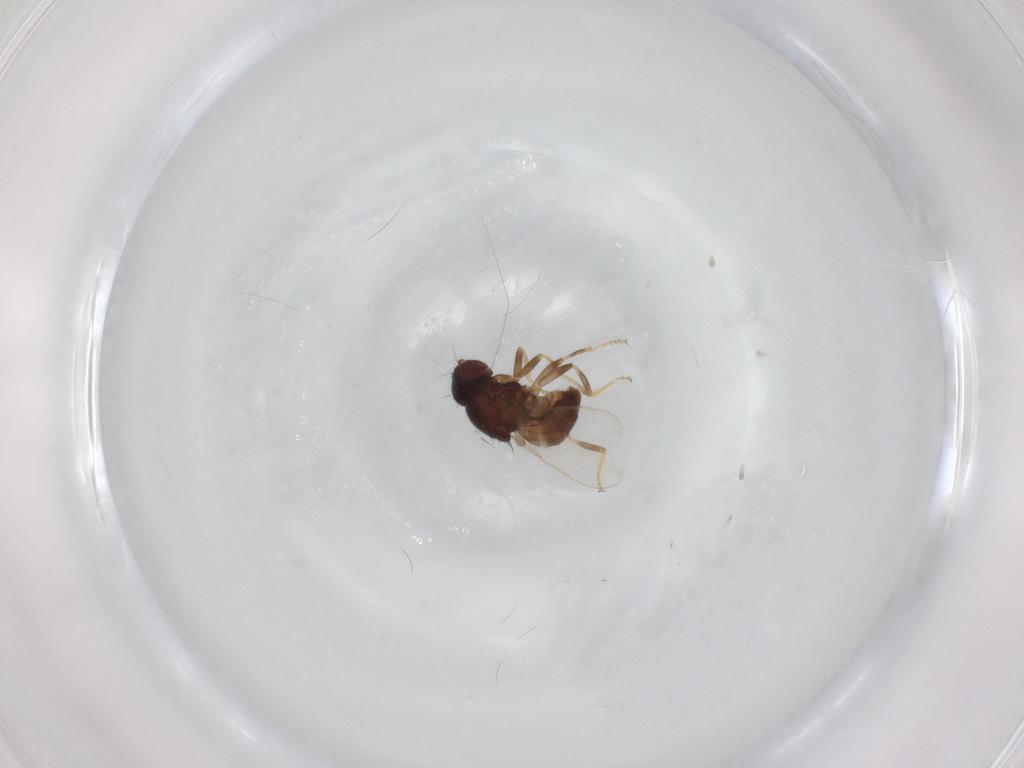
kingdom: Animalia
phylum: Arthropoda
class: Insecta
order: Diptera
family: Chloropidae
